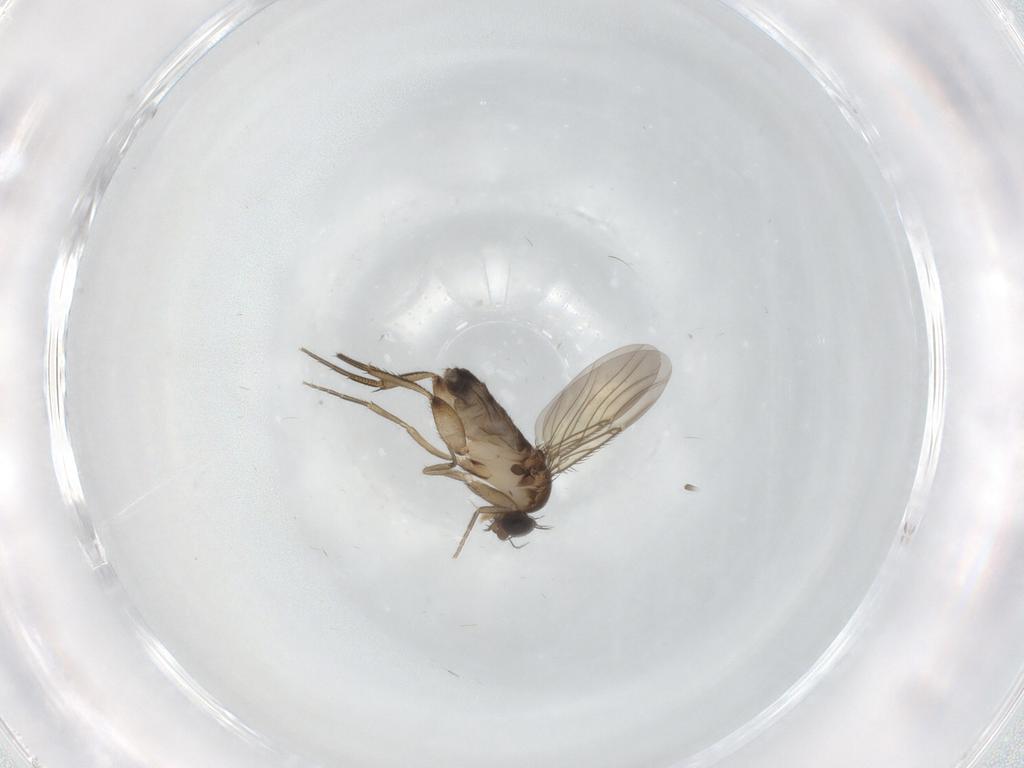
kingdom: Animalia
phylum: Arthropoda
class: Insecta
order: Diptera
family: Phoridae
